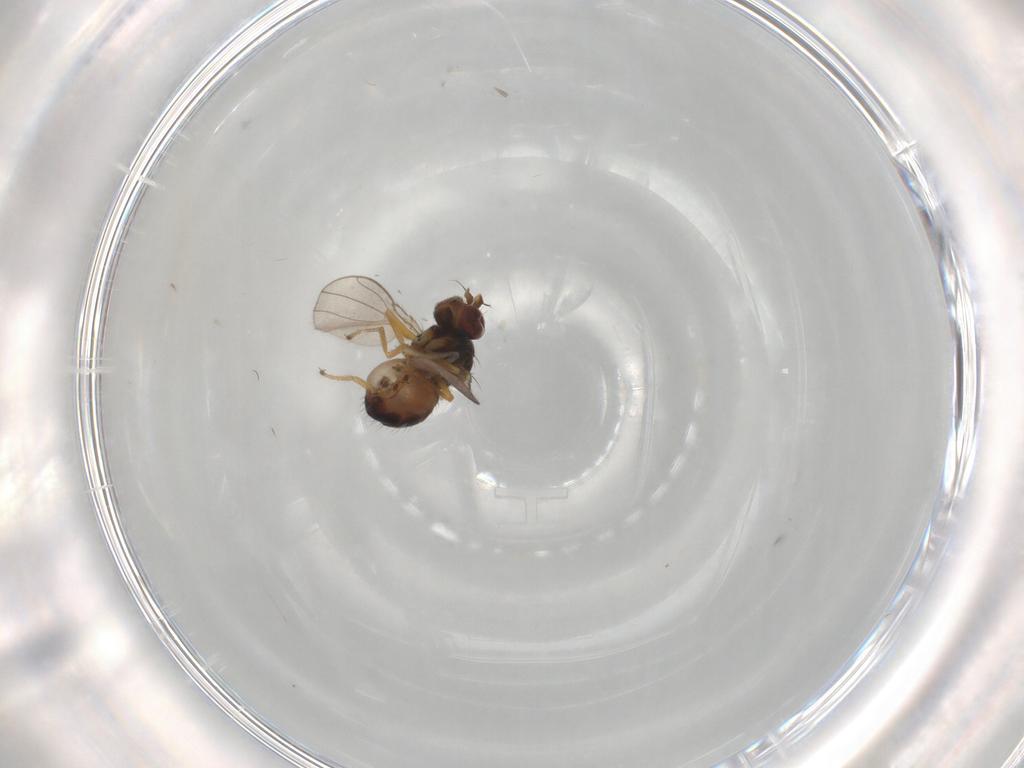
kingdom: Animalia
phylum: Arthropoda
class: Insecta
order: Diptera
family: Ephydridae
